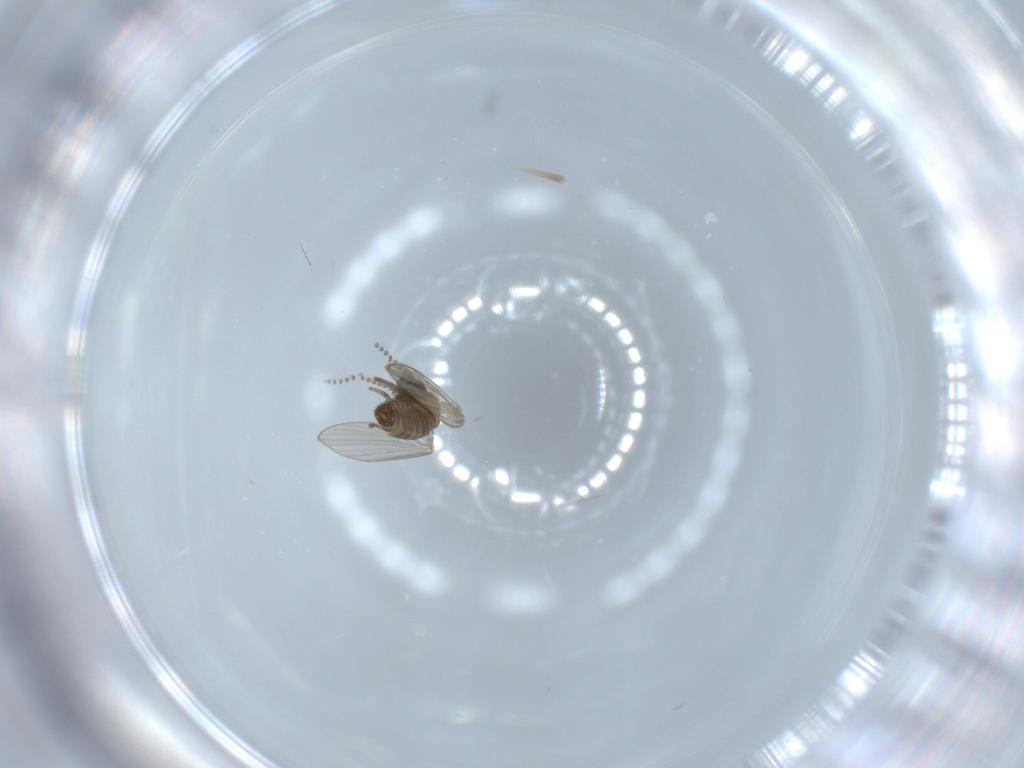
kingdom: Animalia
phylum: Arthropoda
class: Insecta
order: Diptera
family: Psychodidae
